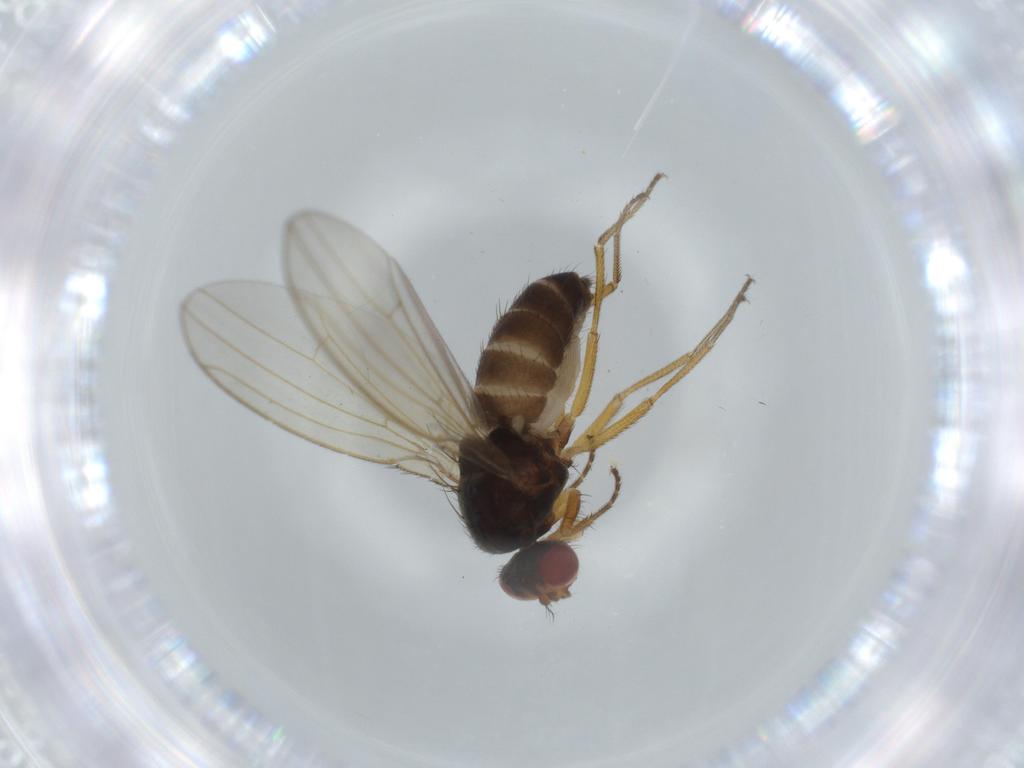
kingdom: Animalia
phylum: Arthropoda
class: Insecta
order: Diptera
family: Drosophilidae
